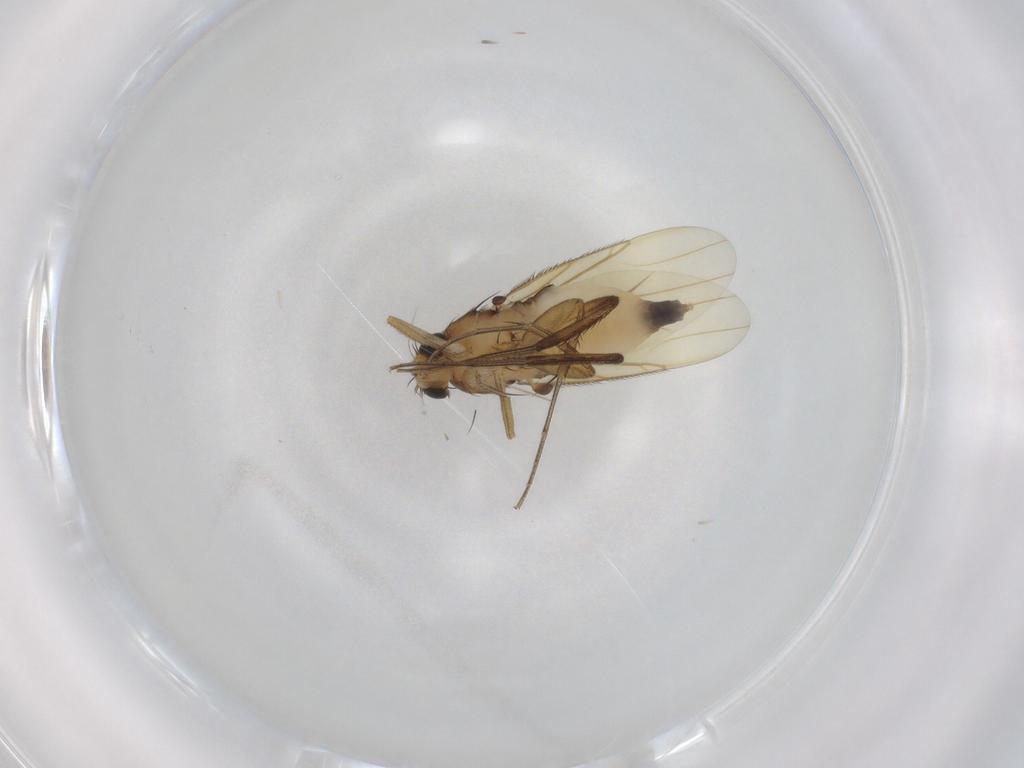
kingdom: Animalia
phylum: Arthropoda
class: Insecta
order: Diptera
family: Phoridae
